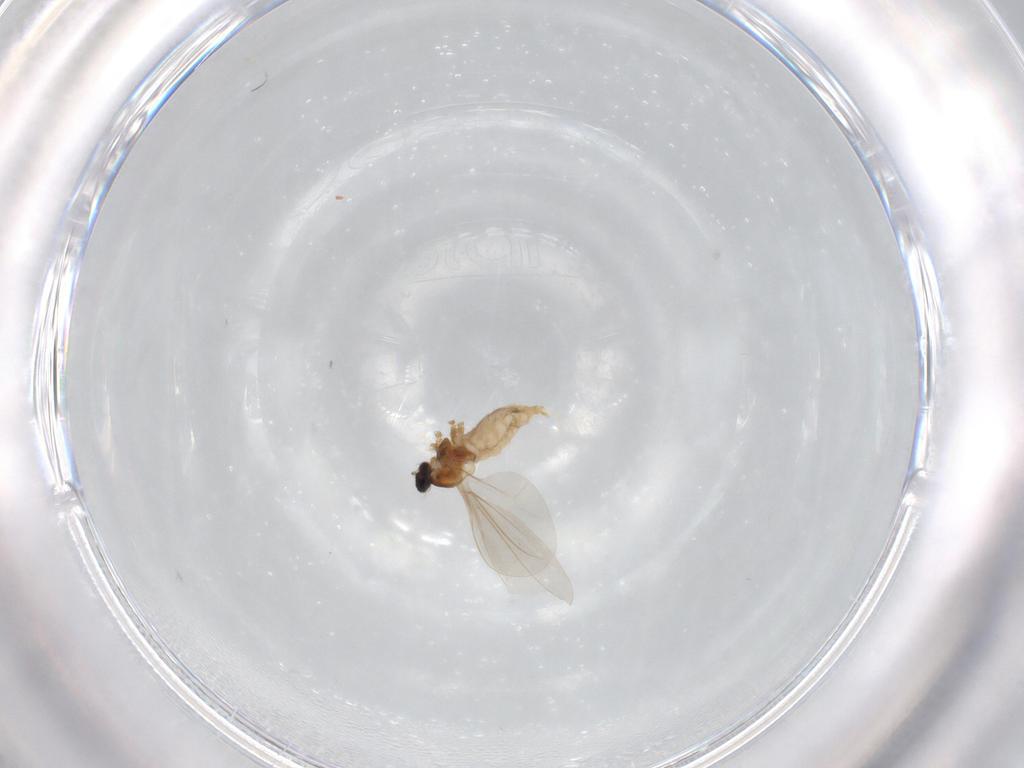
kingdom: Animalia
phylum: Arthropoda
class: Insecta
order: Diptera
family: Cecidomyiidae
